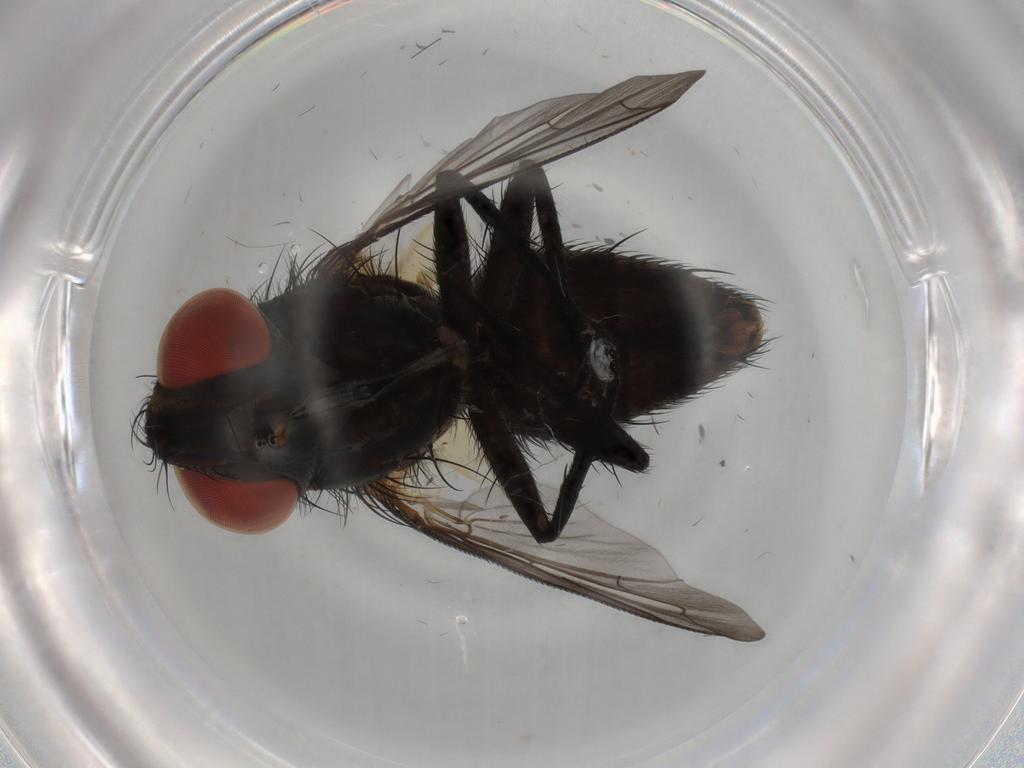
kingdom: Animalia
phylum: Arthropoda
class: Insecta
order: Diptera
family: Sarcophagidae
